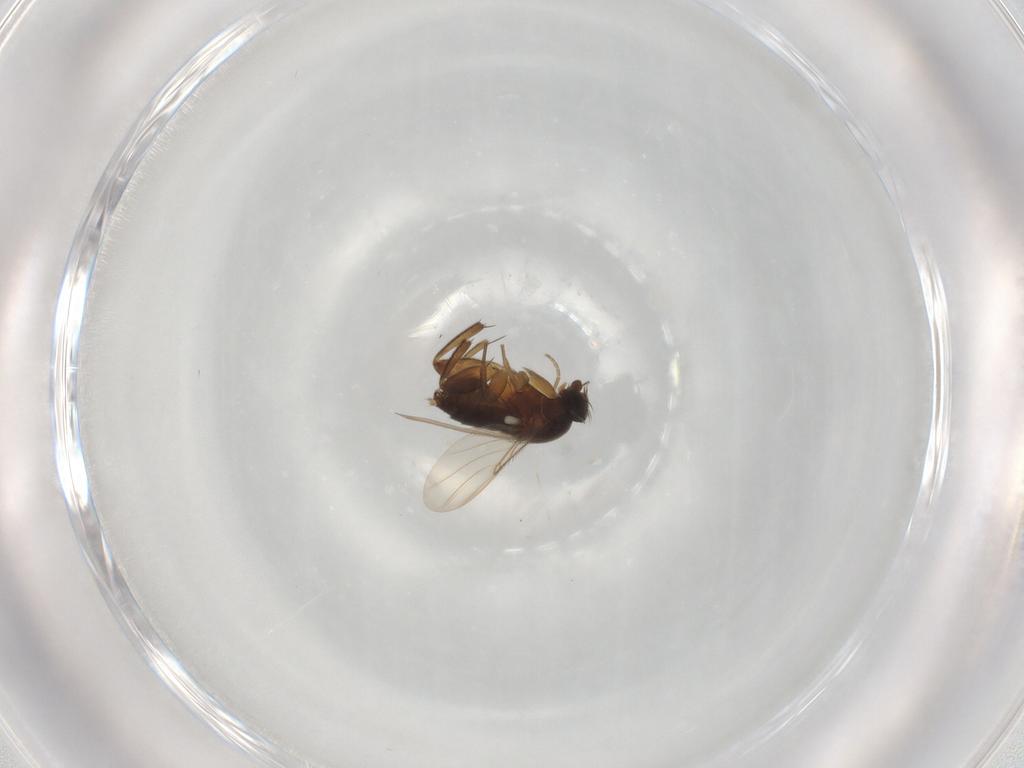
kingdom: Animalia
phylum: Arthropoda
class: Insecta
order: Diptera
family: Phoridae
